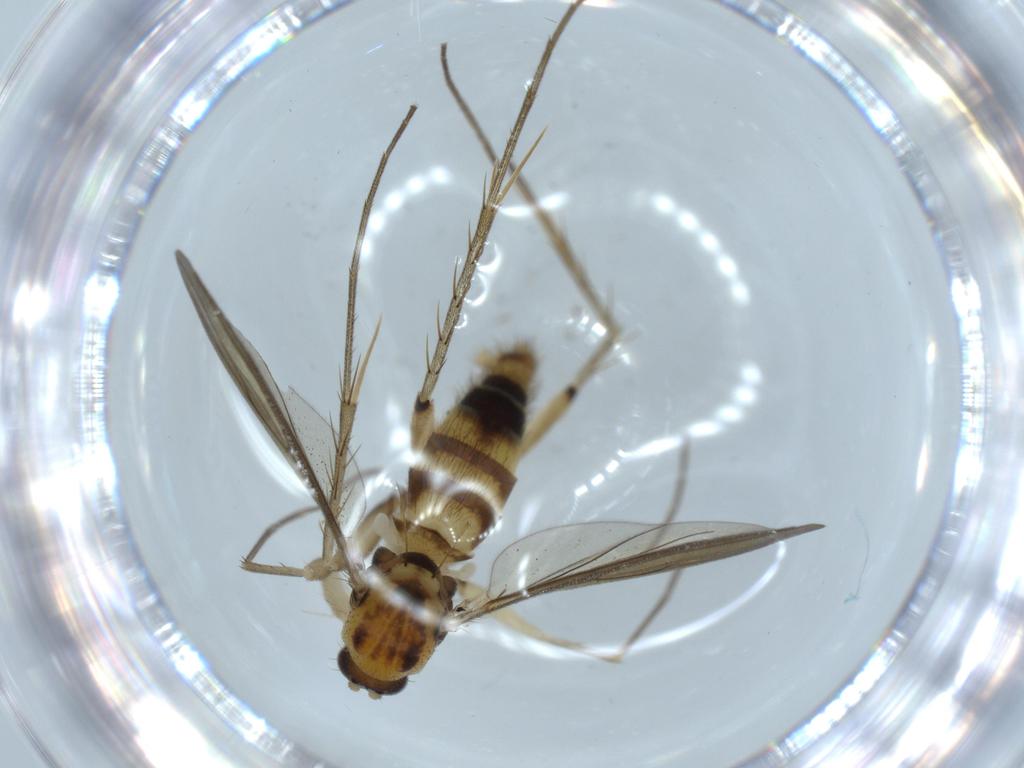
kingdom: Animalia
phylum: Arthropoda
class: Insecta
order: Diptera
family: Mycetophilidae
